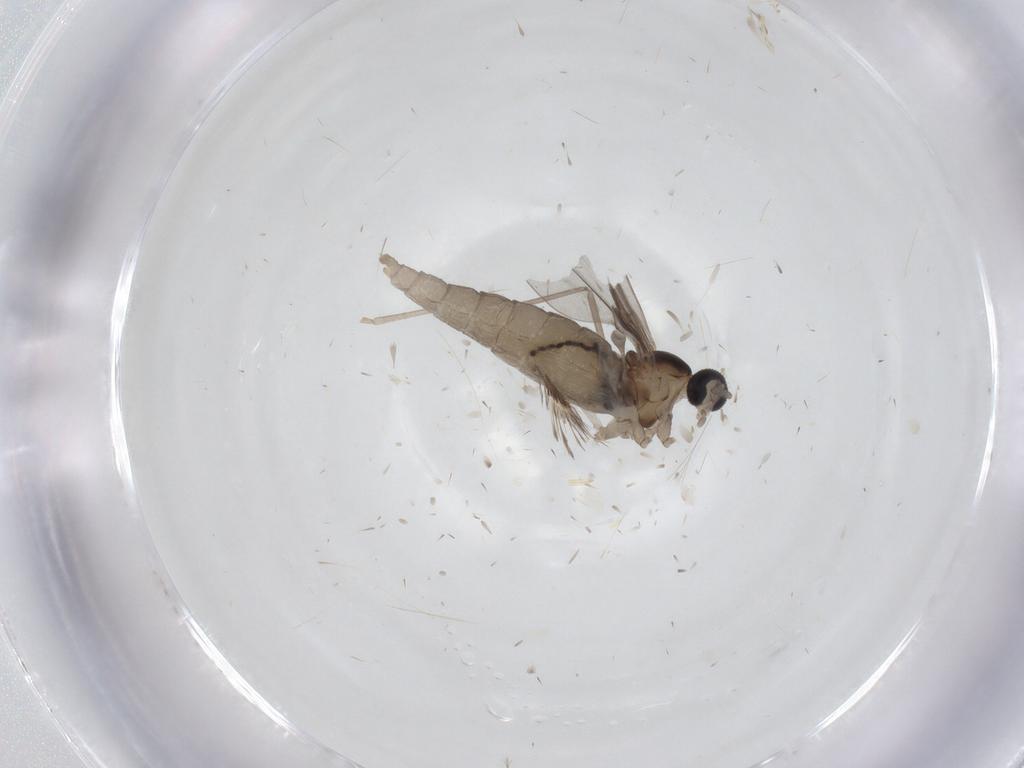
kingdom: Animalia
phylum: Arthropoda
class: Insecta
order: Diptera
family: Cecidomyiidae
